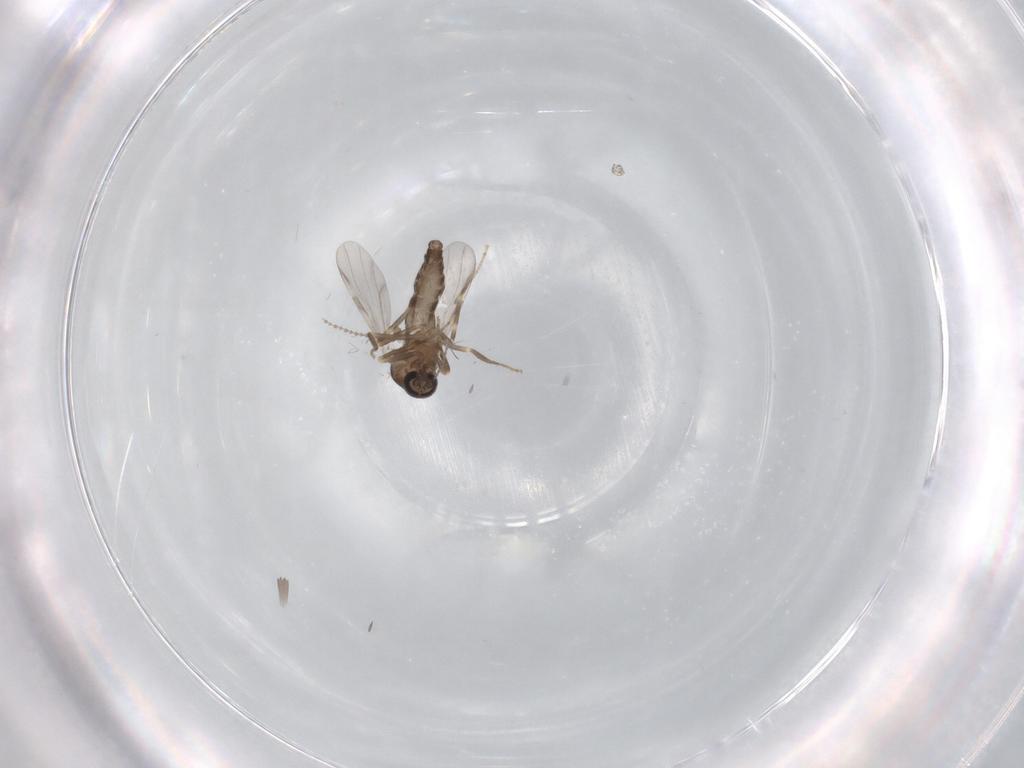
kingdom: Animalia
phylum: Arthropoda
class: Insecta
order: Diptera
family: Ceratopogonidae
